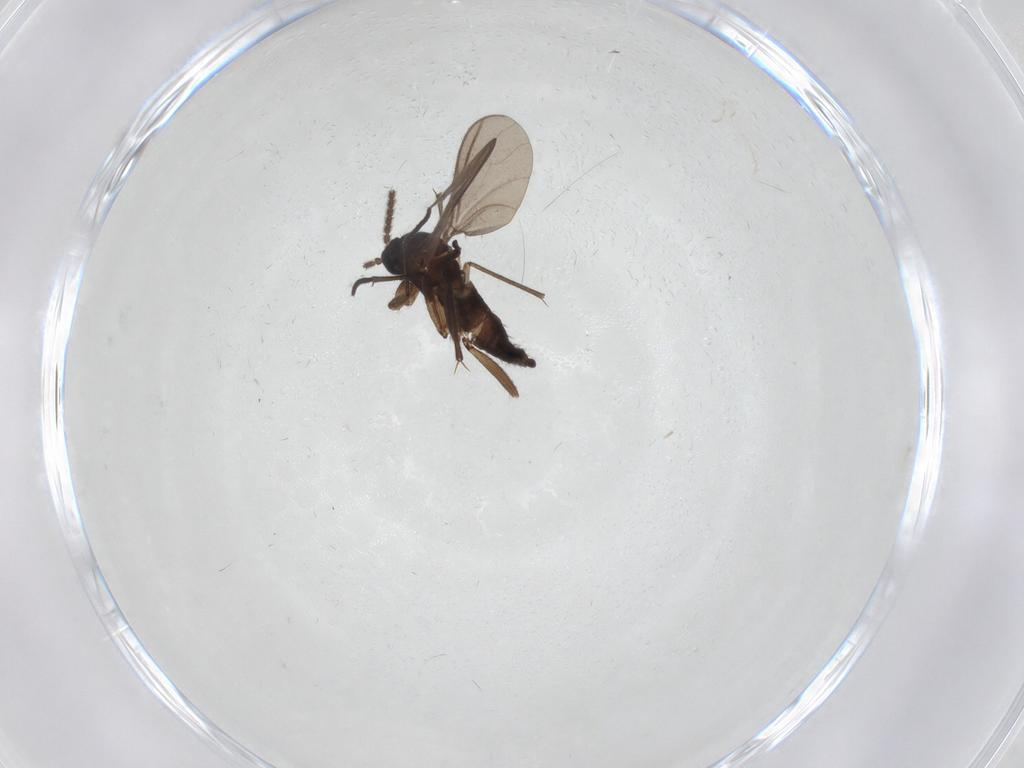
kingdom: Animalia
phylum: Arthropoda
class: Insecta
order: Diptera
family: Sciaridae
